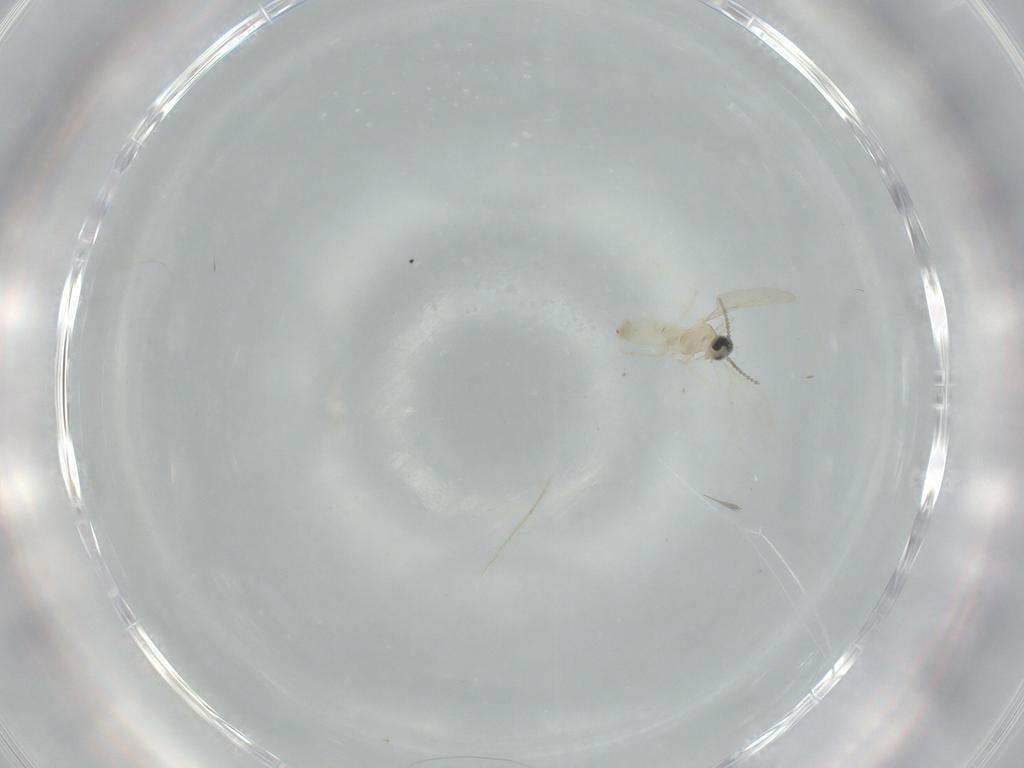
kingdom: Animalia
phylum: Arthropoda
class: Insecta
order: Diptera
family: Cecidomyiidae
